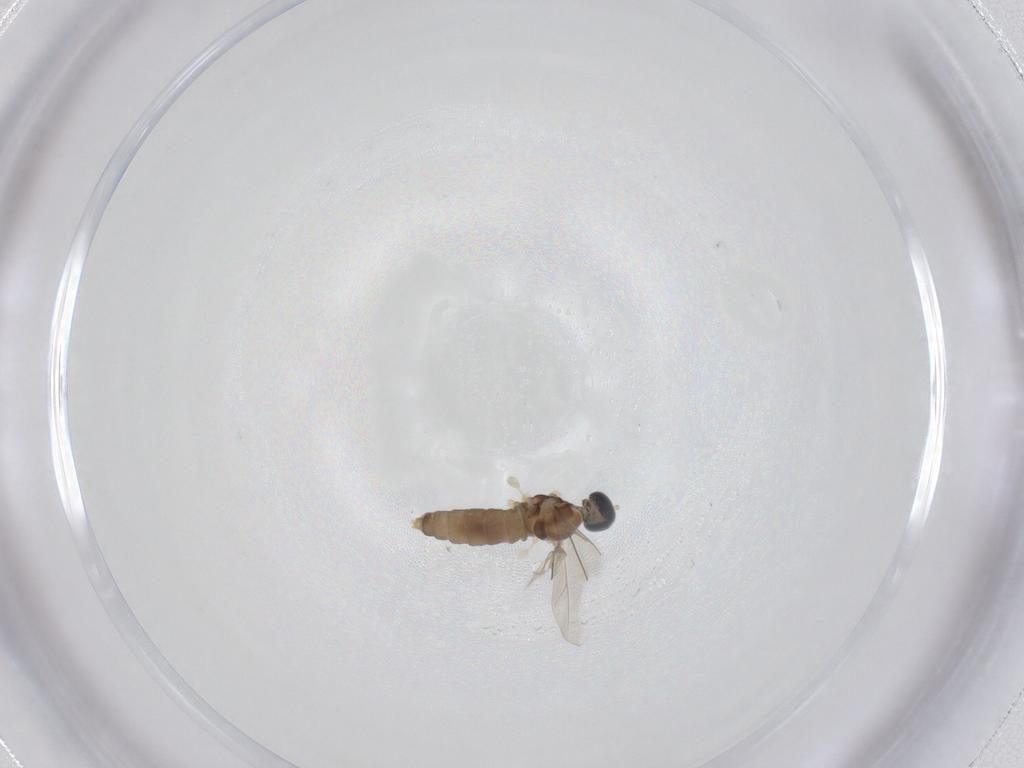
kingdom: Animalia
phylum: Arthropoda
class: Insecta
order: Diptera
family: Cecidomyiidae
